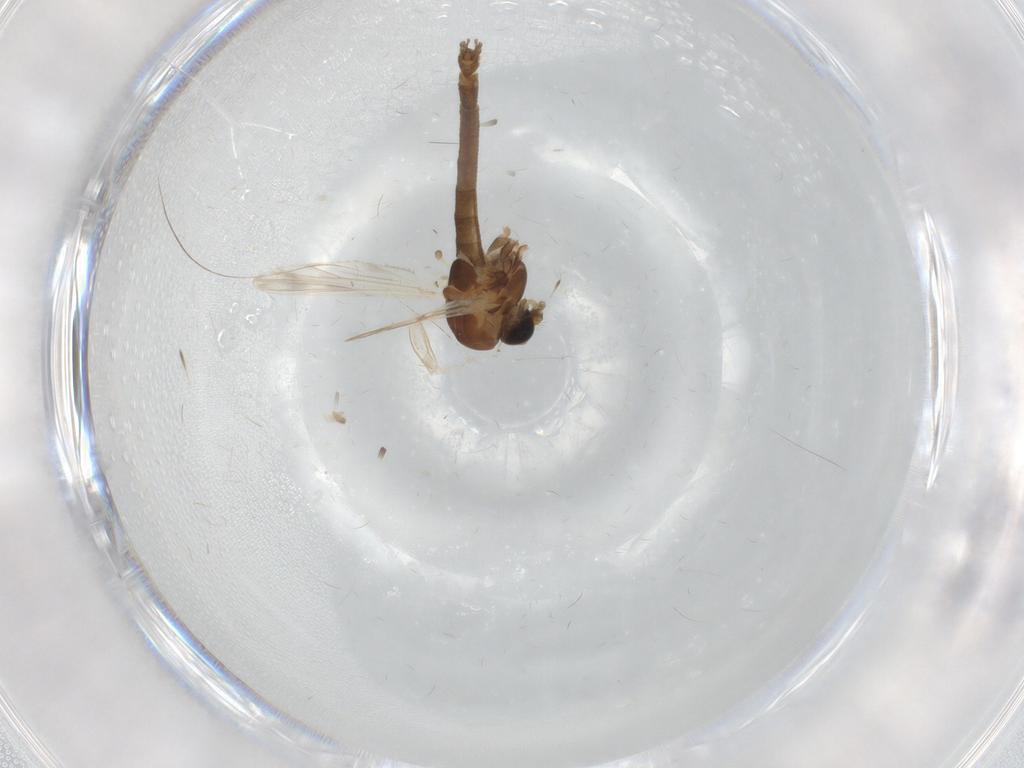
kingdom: Animalia
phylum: Arthropoda
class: Insecta
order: Diptera
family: Chironomidae
